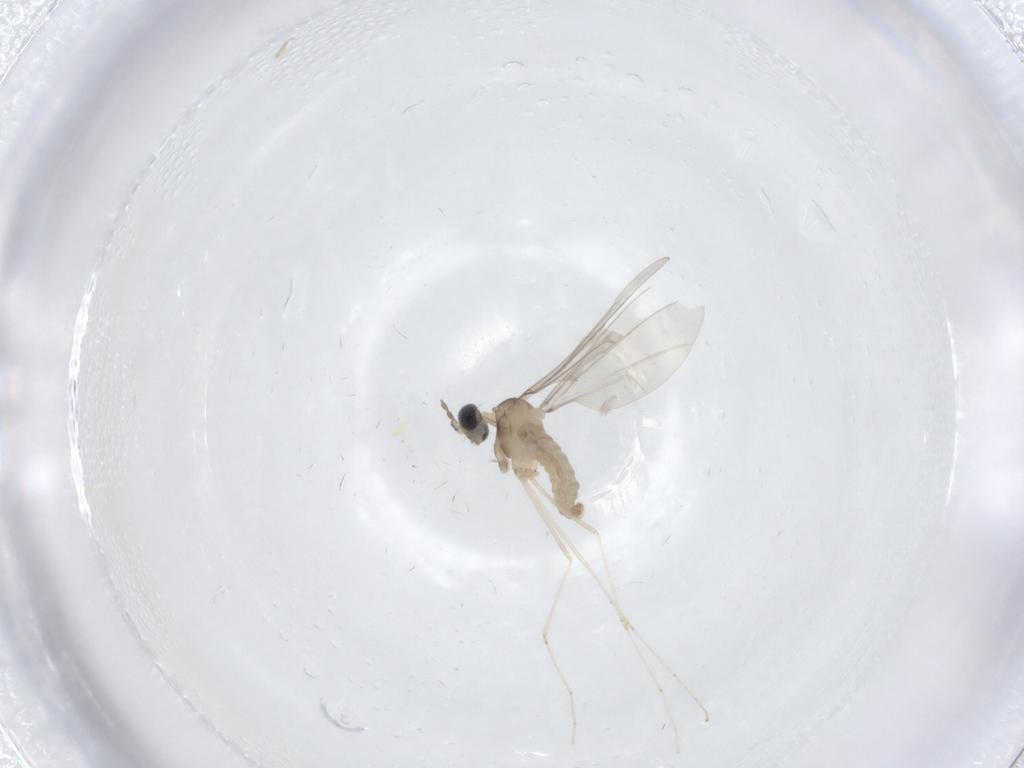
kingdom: Animalia
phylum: Arthropoda
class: Insecta
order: Diptera
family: Cecidomyiidae
